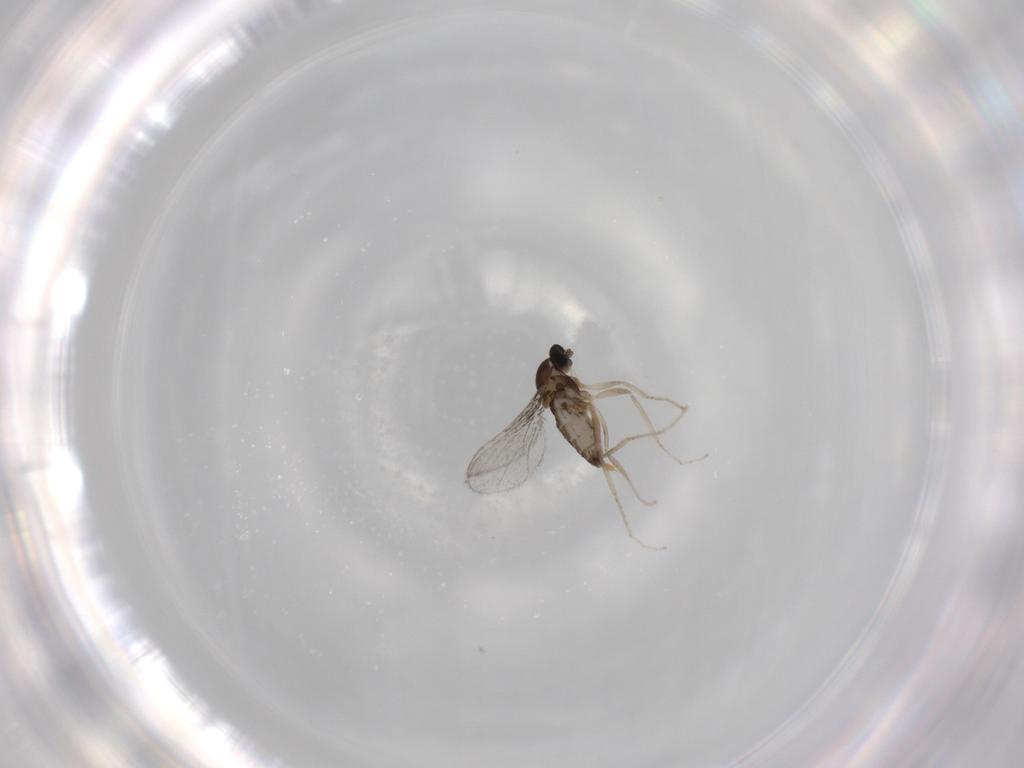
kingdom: Animalia
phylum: Arthropoda
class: Insecta
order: Diptera
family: Cecidomyiidae
